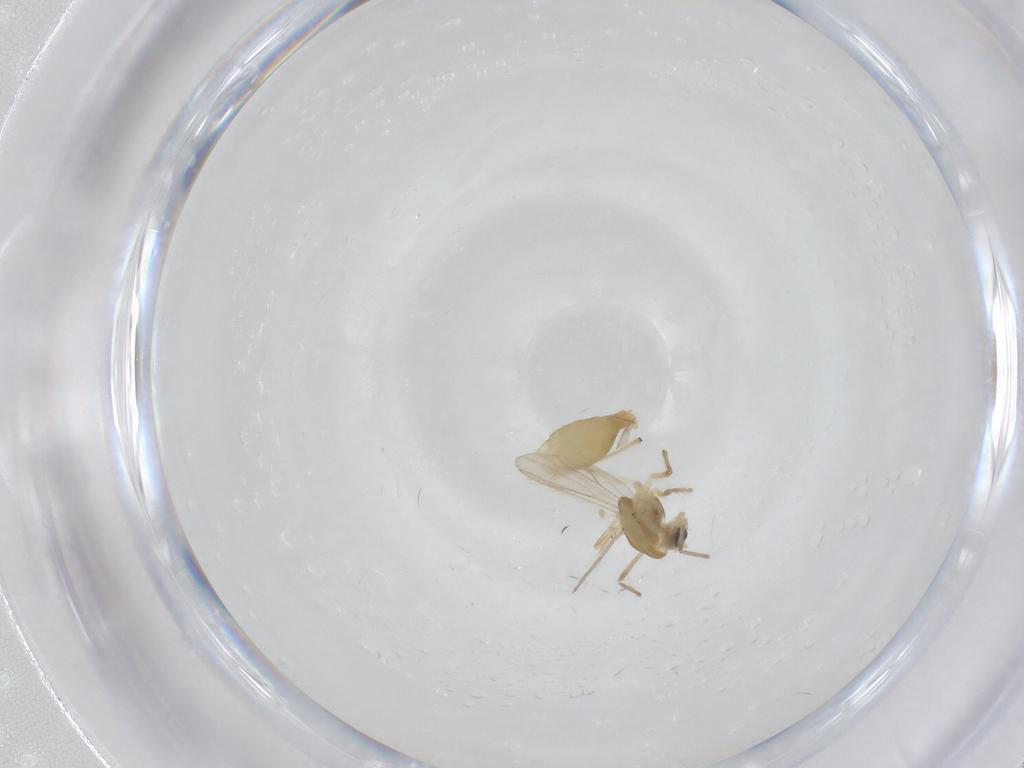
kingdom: Animalia
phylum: Arthropoda
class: Insecta
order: Diptera
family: Chironomidae
